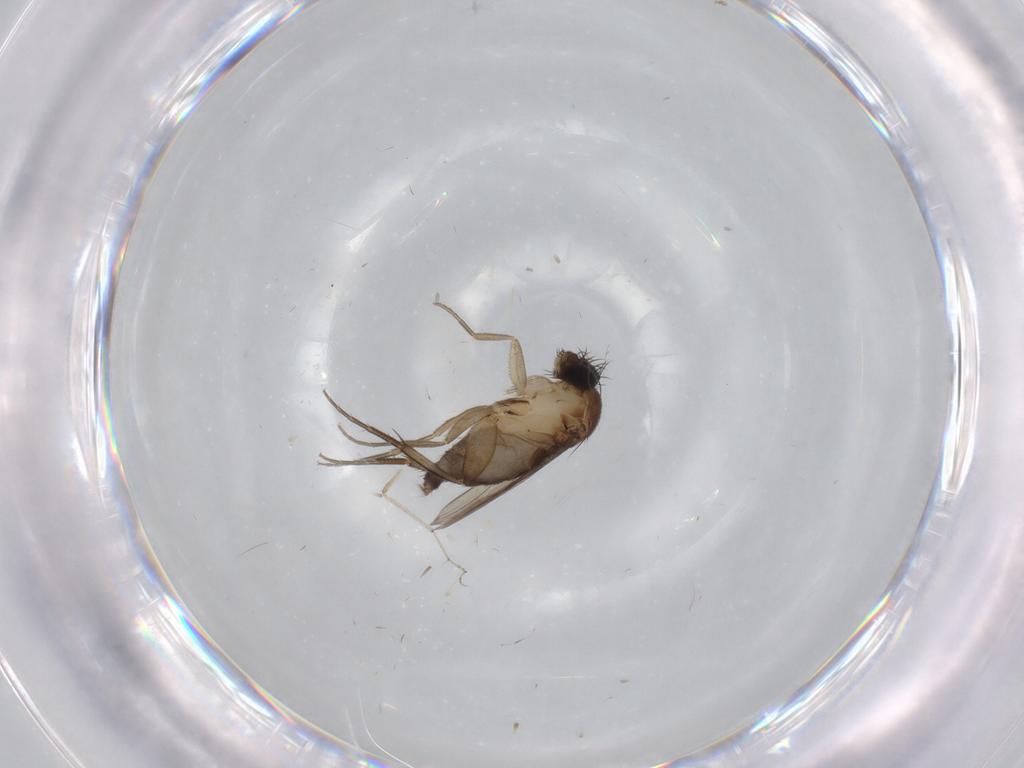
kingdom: Animalia
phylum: Arthropoda
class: Insecta
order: Diptera
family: Phoridae
